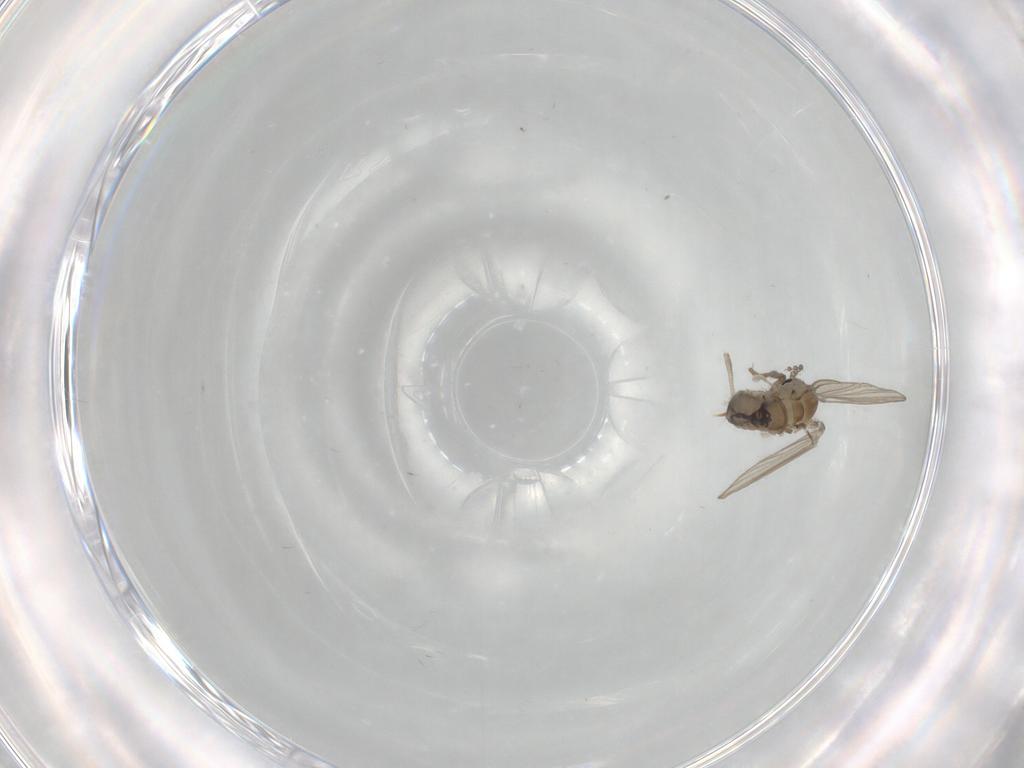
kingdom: Animalia
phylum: Arthropoda
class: Insecta
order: Diptera
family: Psychodidae
